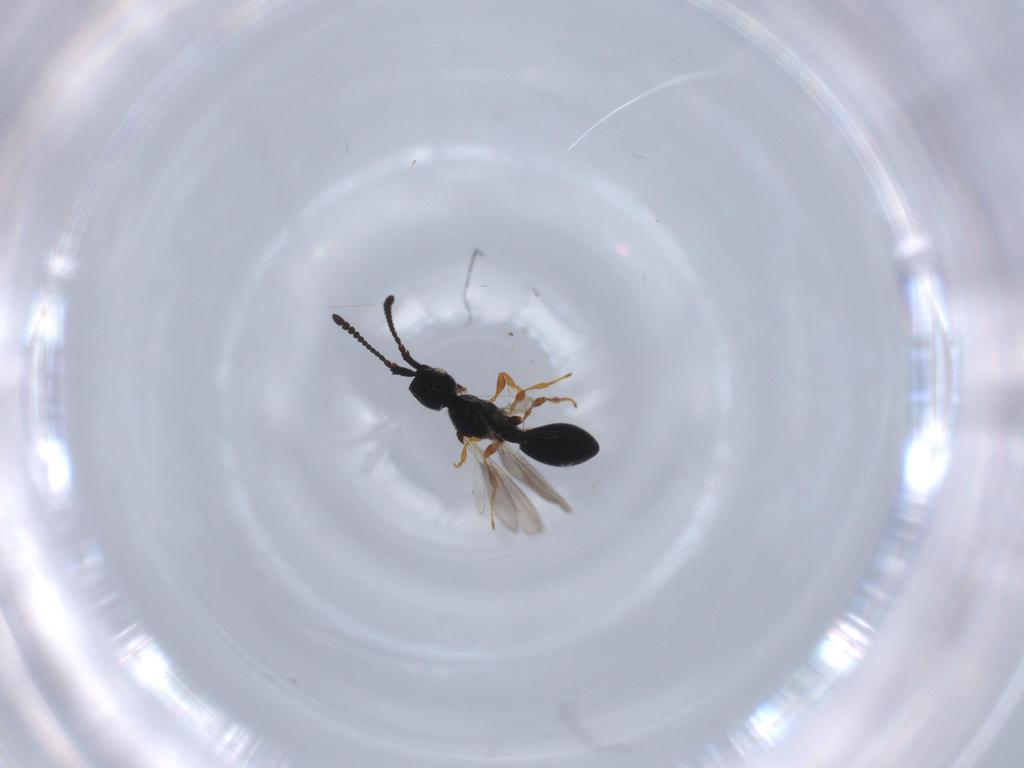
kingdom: Animalia
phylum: Arthropoda
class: Insecta
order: Hymenoptera
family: Diapriidae
